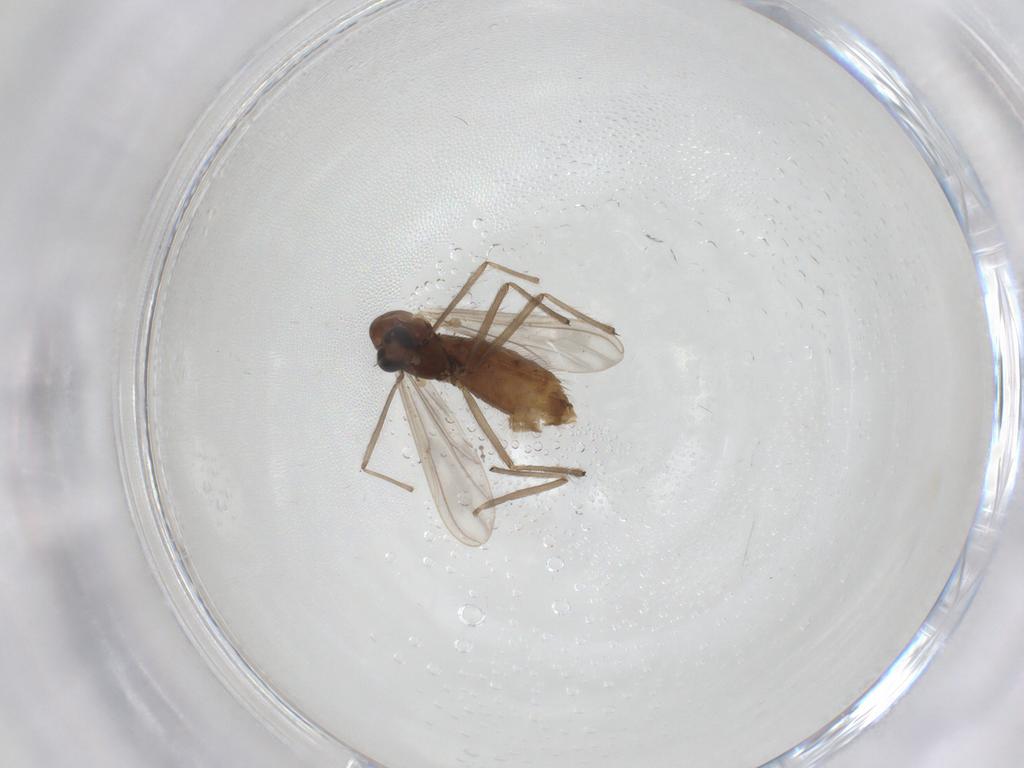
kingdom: Animalia
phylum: Arthropoda
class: Insecta
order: Diptera
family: Chironomidae
